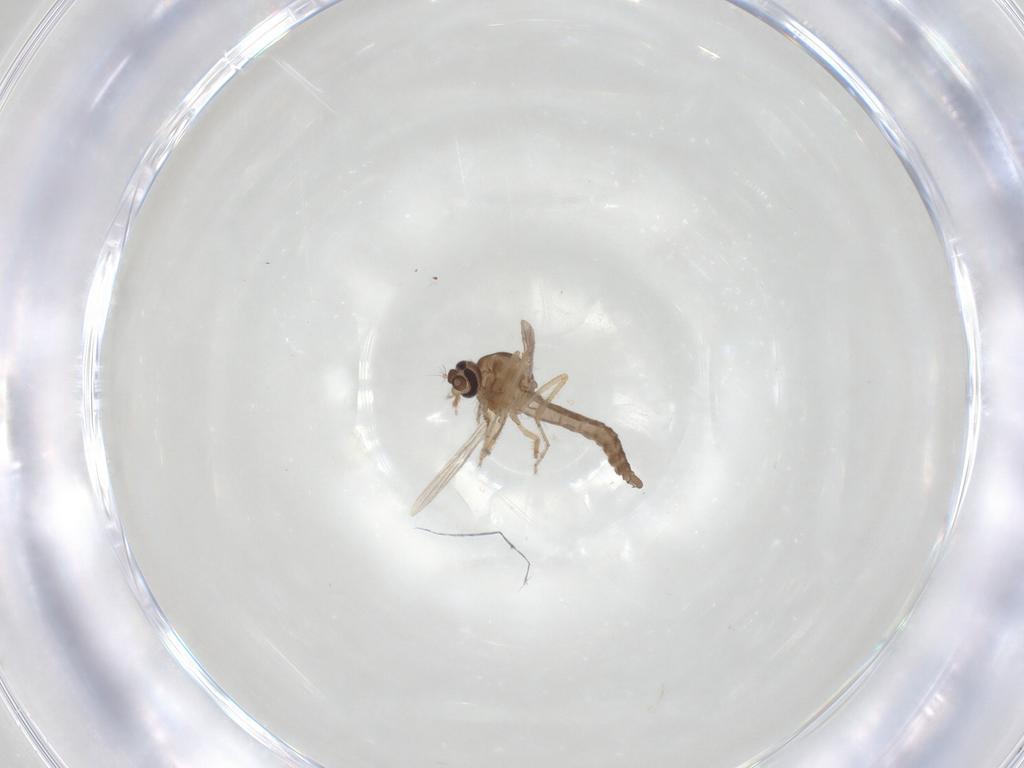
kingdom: Animalia
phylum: Arthropoda
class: Insecta
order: Diptera
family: Ceratopogonidae
